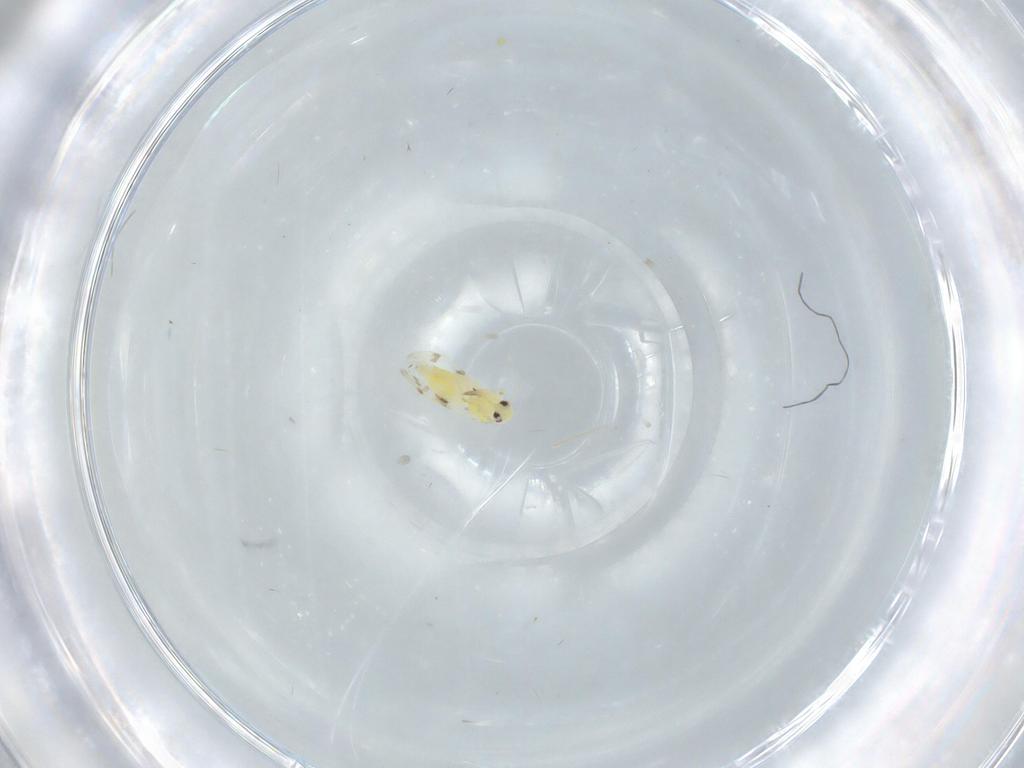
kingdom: Animalia
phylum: Arthropoda
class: Insecta
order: Hemiptera
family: Aleyrodidae
